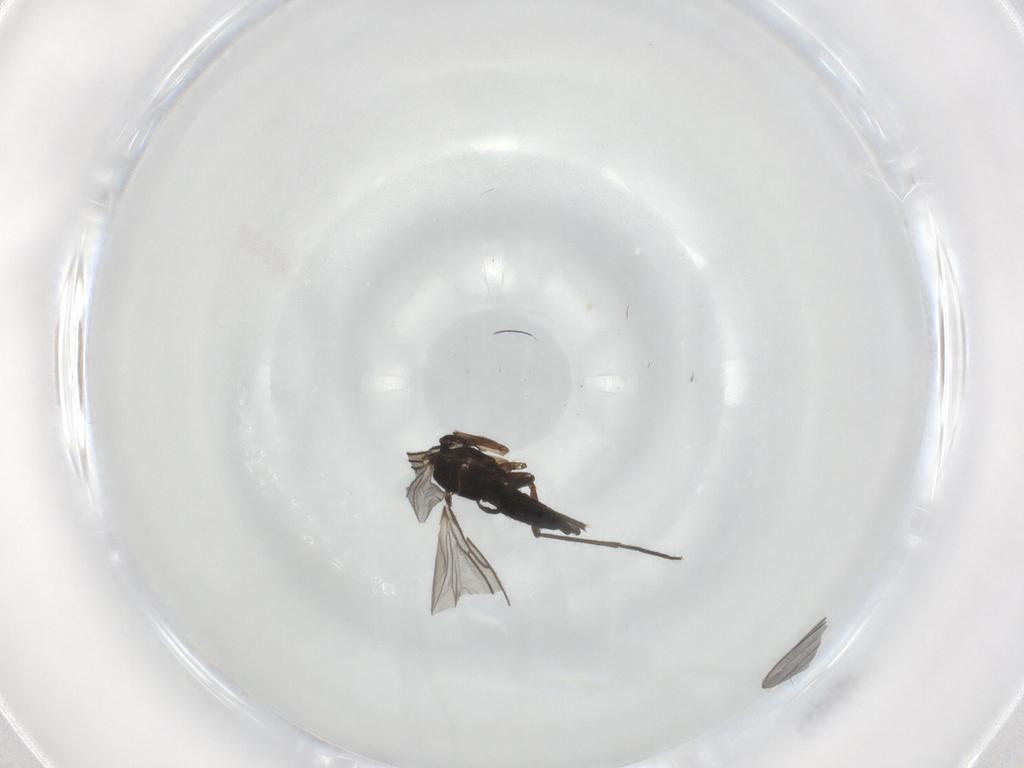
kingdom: Animalia
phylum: Arthropoda
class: Insecta
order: Diptera
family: Sciaridae
